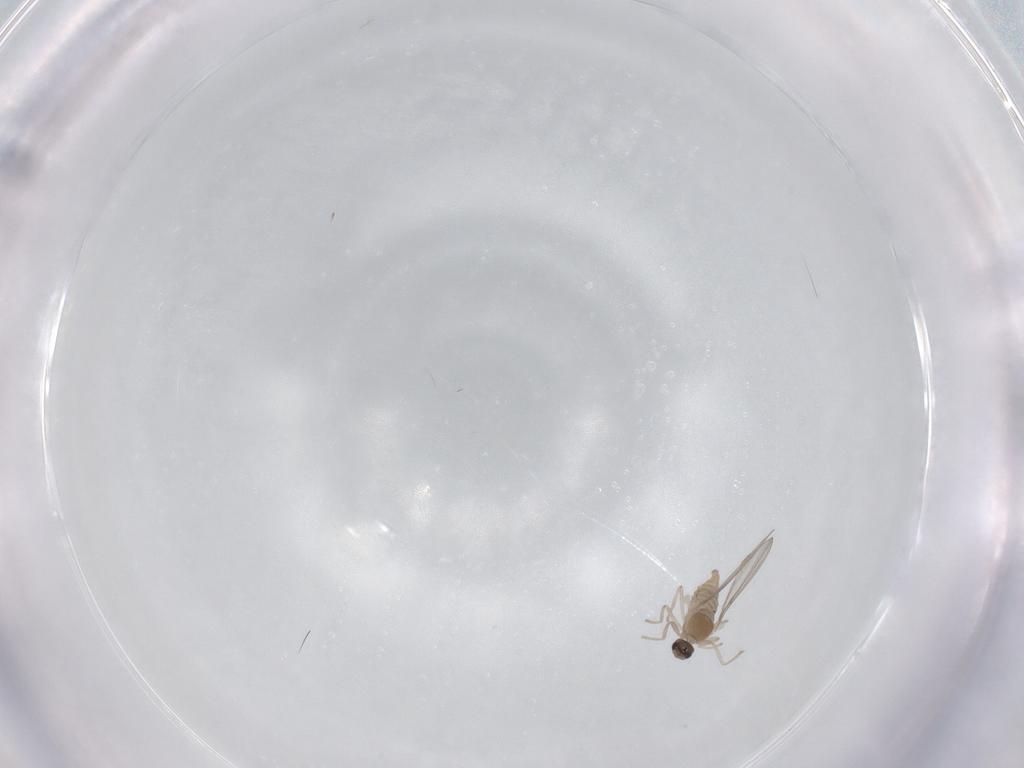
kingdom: Animalia
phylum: Arthropoda
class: Insecta
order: Diptera
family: Cecidomyiidae
